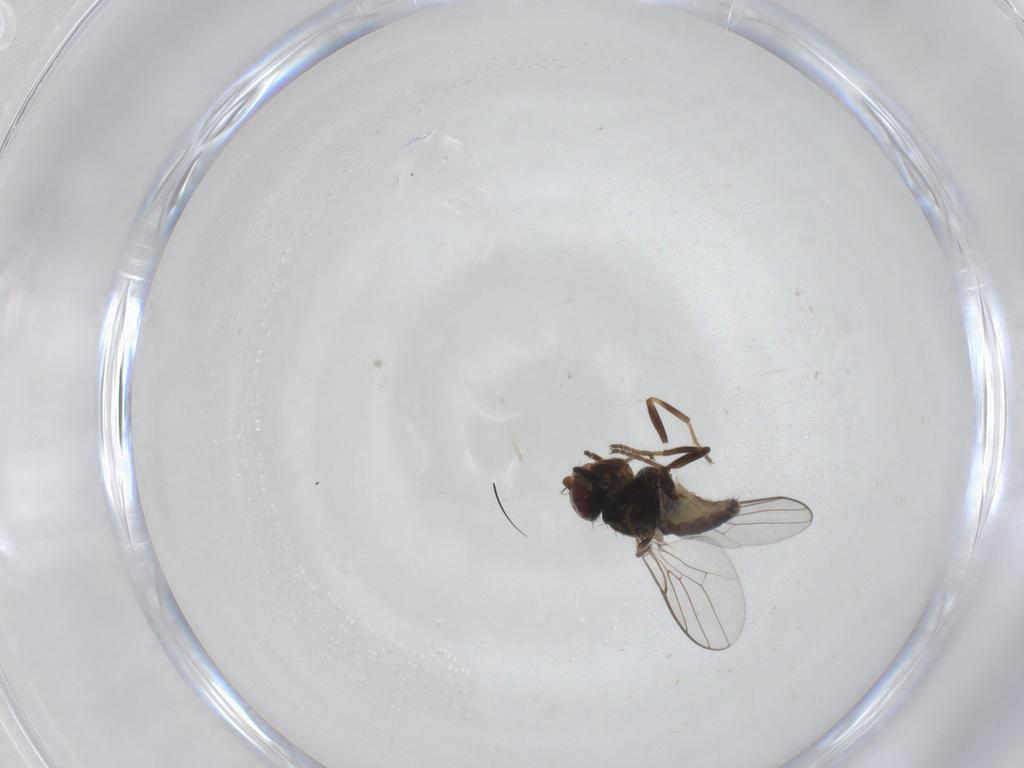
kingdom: Animalia
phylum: Arthropoda
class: Insecta
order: Diptera
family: Chloropidae
